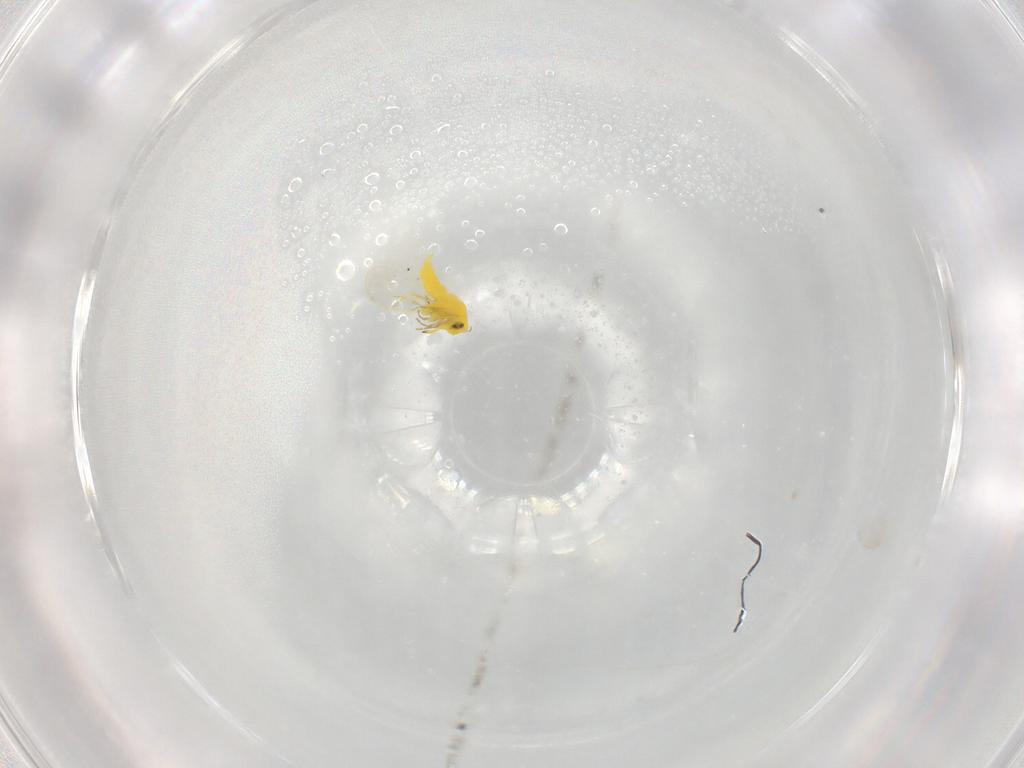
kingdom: Animalia
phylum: Arthropoda
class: Insecta
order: Hemiptera
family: Aleyrodidae
